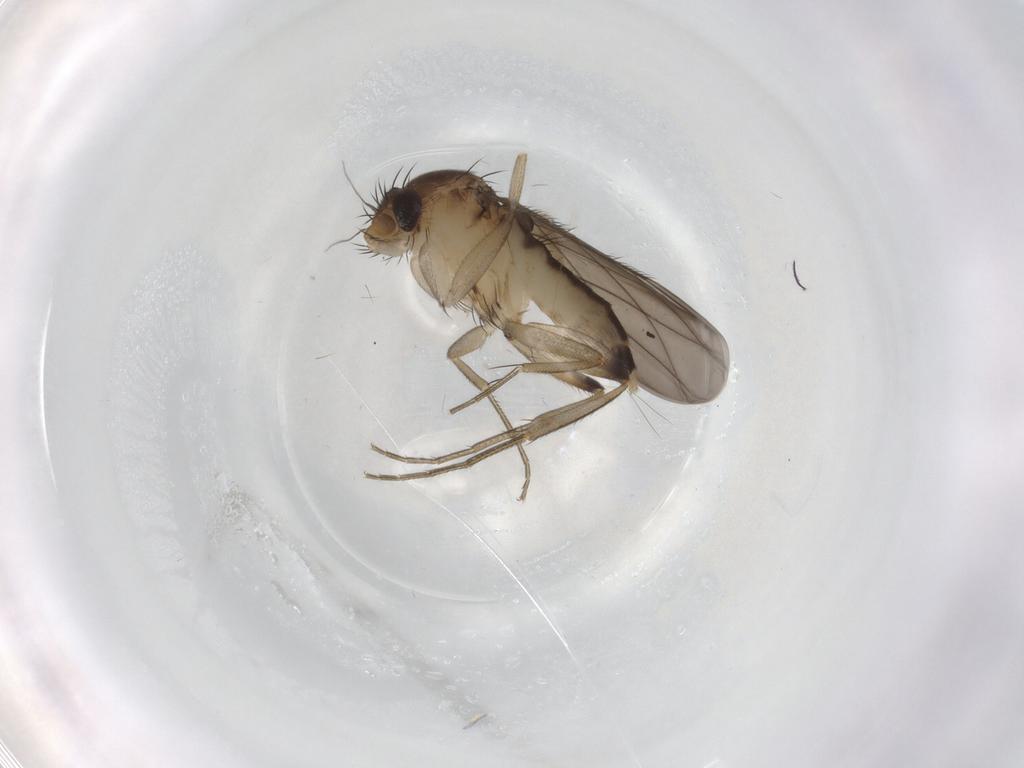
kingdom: Animalia
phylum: Arthropoda
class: Insecta
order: Diptera
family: Phoridae
